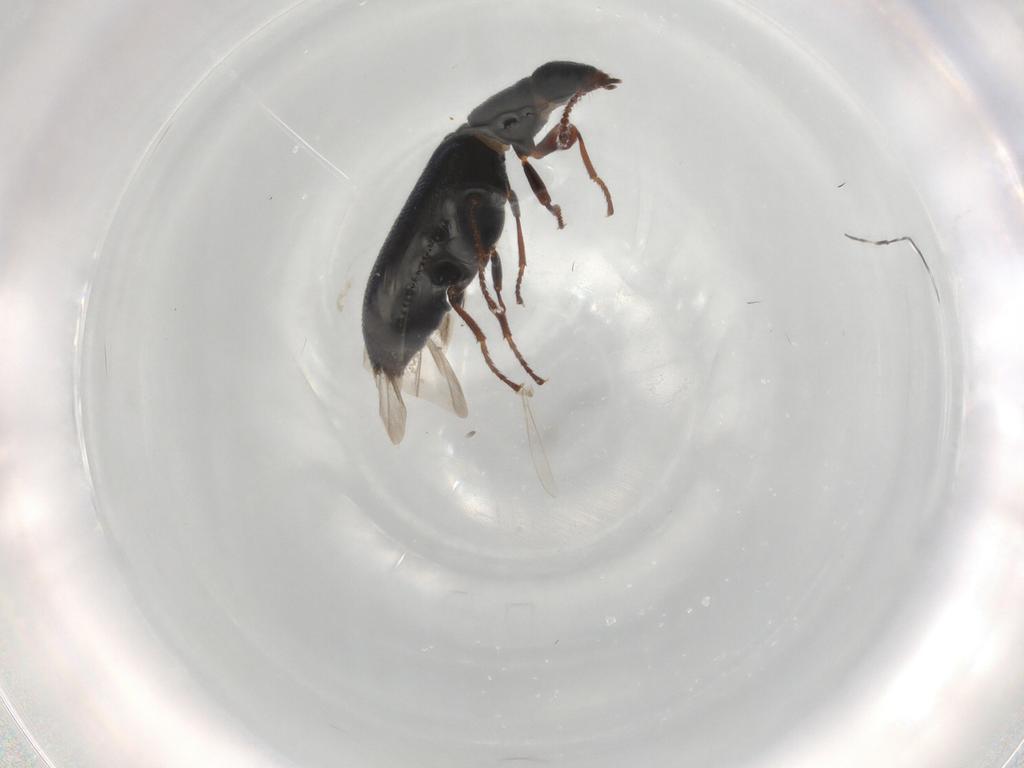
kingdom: Animalia
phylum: Arthropoda
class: Insecta
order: Coleoptera
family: Melyridae
